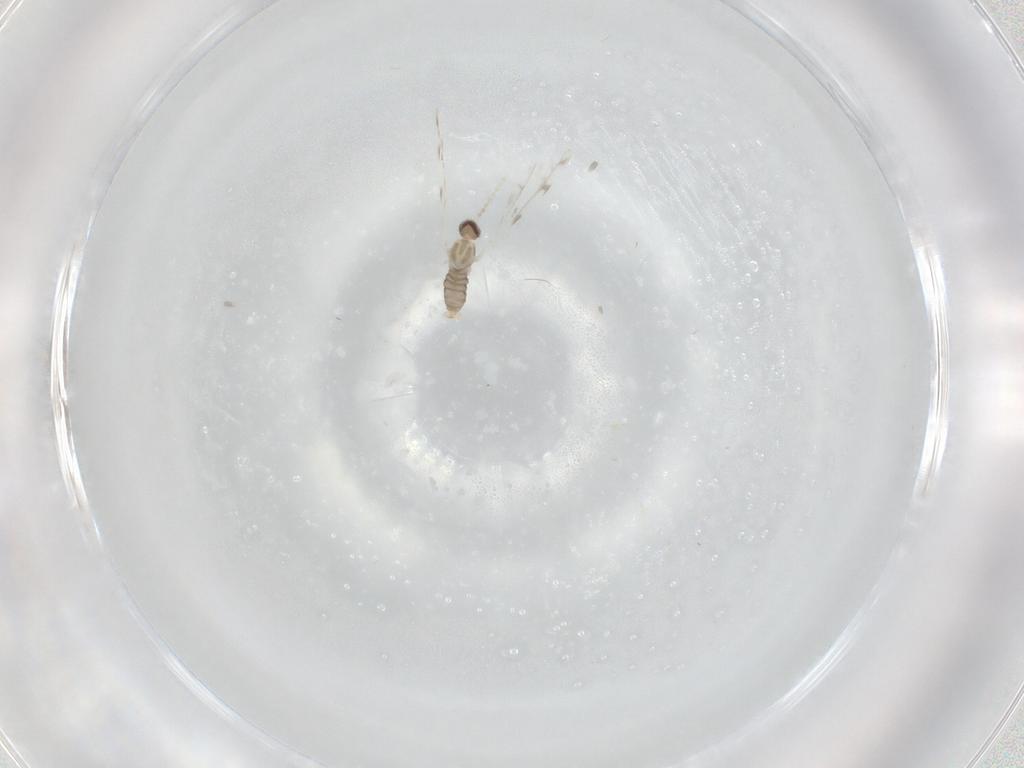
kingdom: Animalia
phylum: Arthropoda
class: Insecta
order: Diptera
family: Cecidomyiidae
